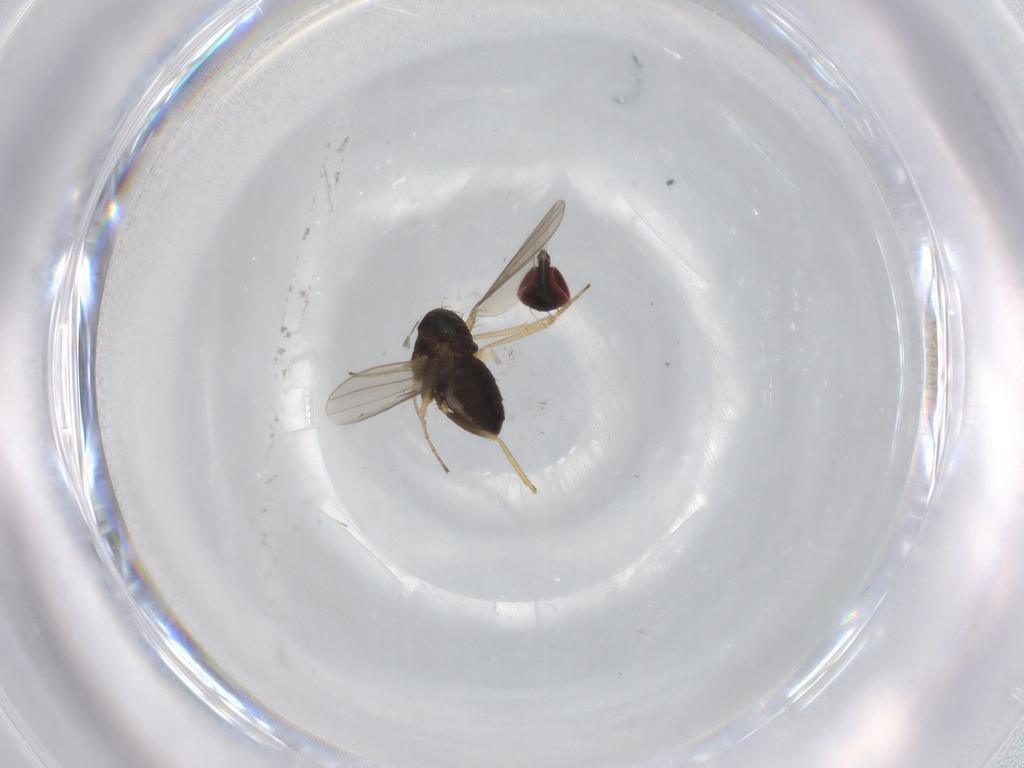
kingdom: Animalia
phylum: Arthropoda
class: Insecta
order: Diptera
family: Dolichopodidae
